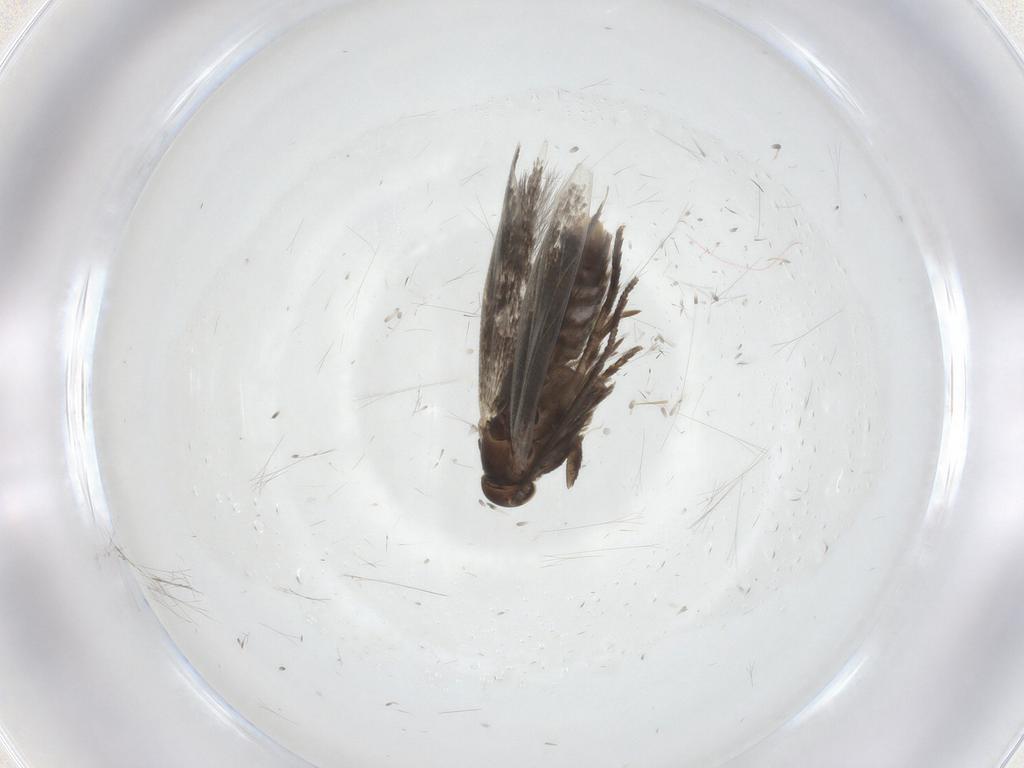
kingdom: Animalia
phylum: Arthropoda
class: Insecta
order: Lepidoptera
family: Elachistidae
